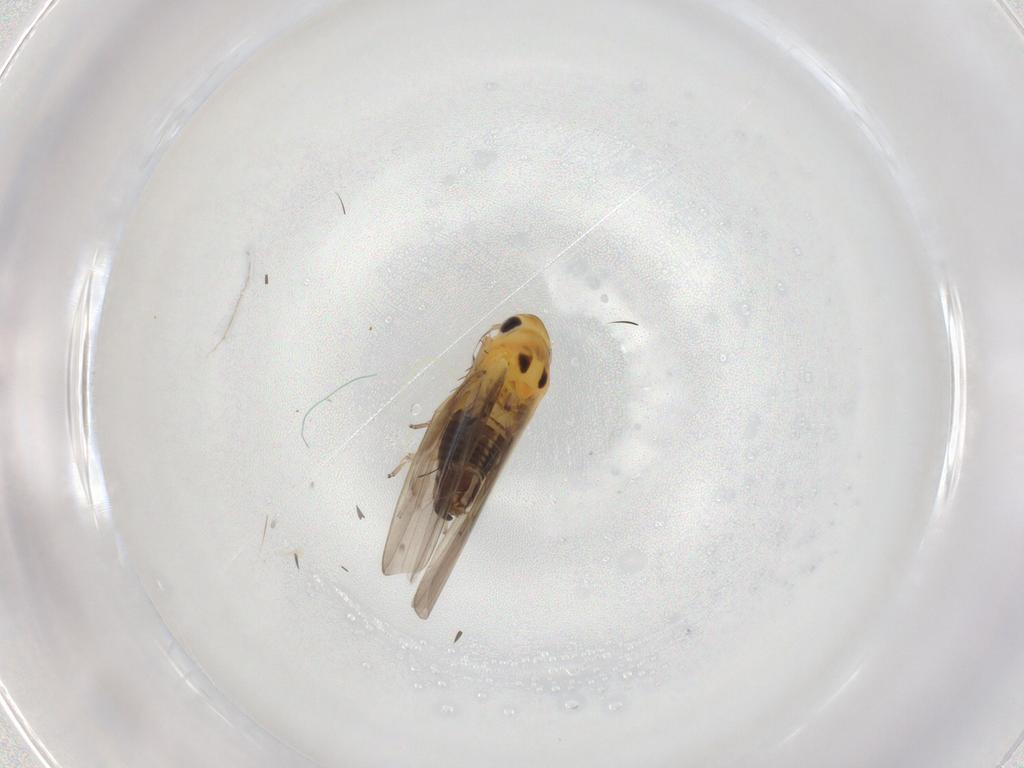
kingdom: Animalia
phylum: Arthropoda
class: Insecta
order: Hemiptera
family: Cicadellidae
